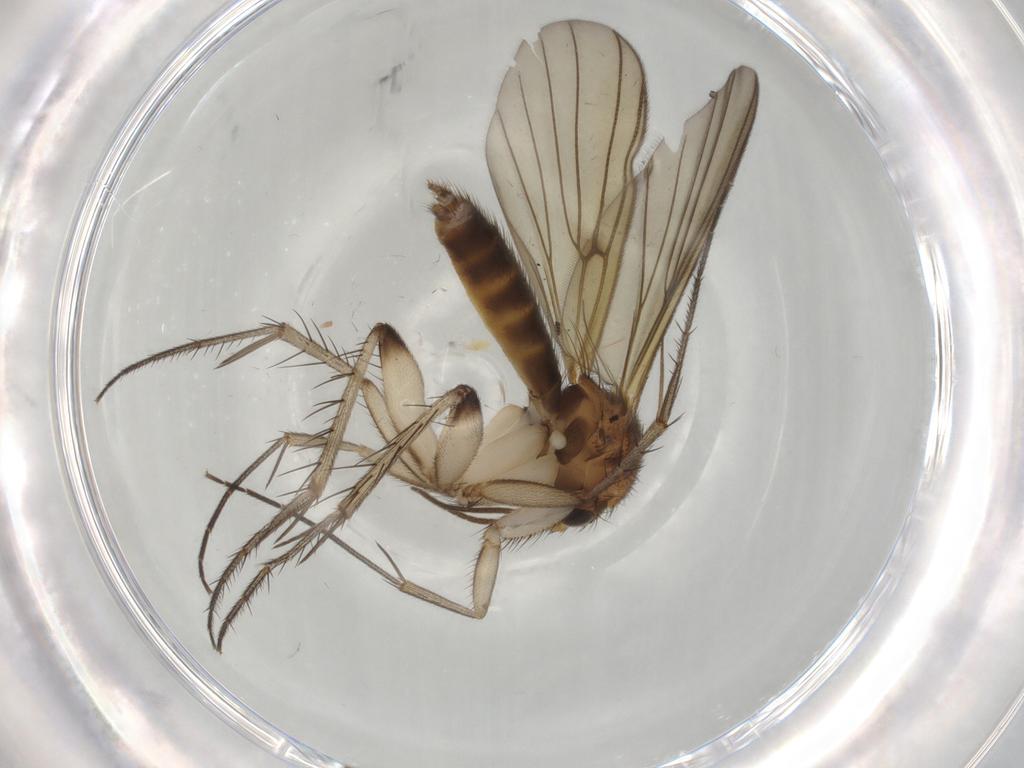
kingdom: Animalia
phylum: Arthropoda
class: Insecta
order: Diptera
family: Mycetophilidae
